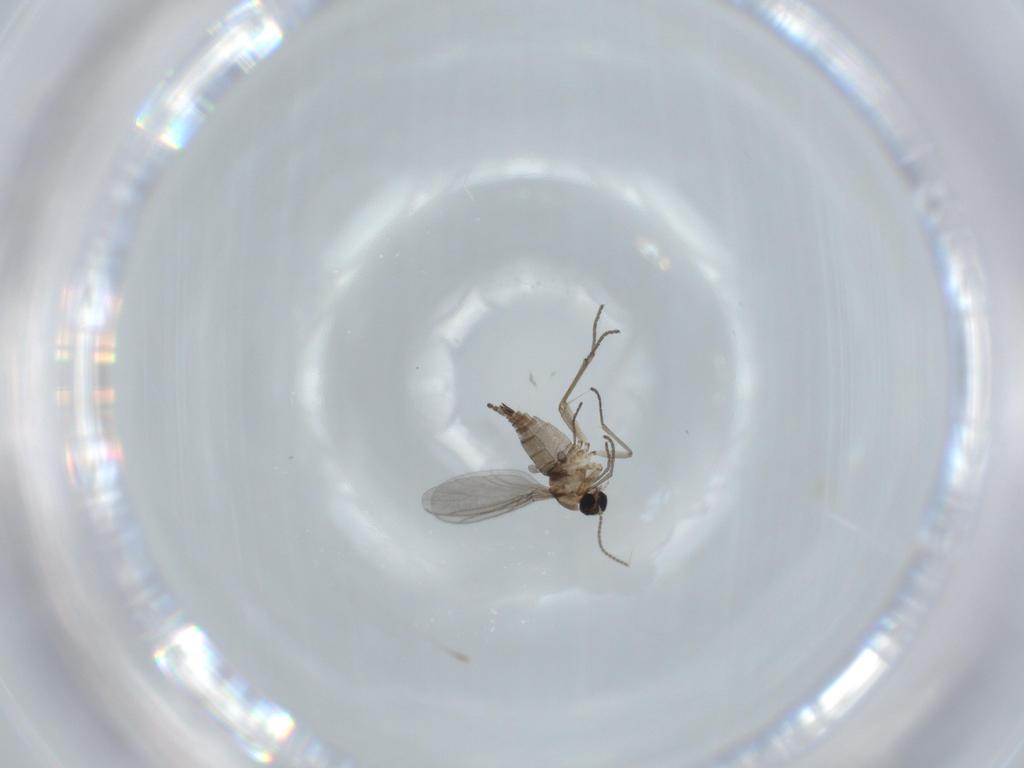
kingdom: Animalia
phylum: Arthropoda
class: Insecta
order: Diptera
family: Sciaridae
